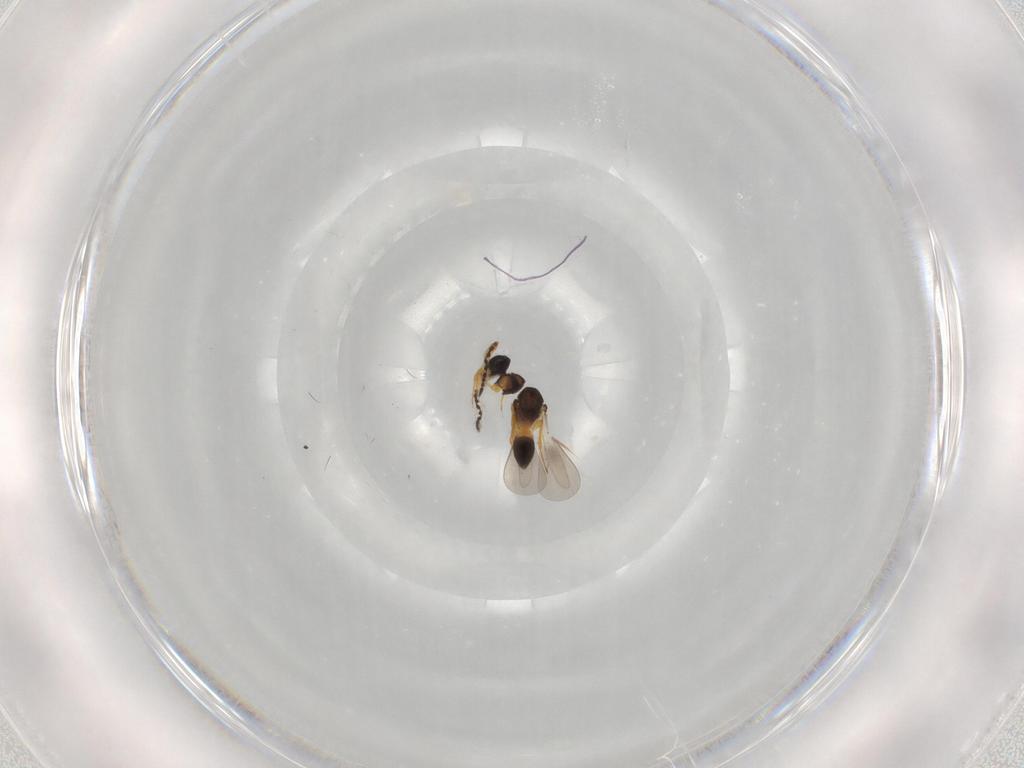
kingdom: Animalia
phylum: Arthropoda
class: Insecta
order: Hymenoptera
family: Platygastridae
